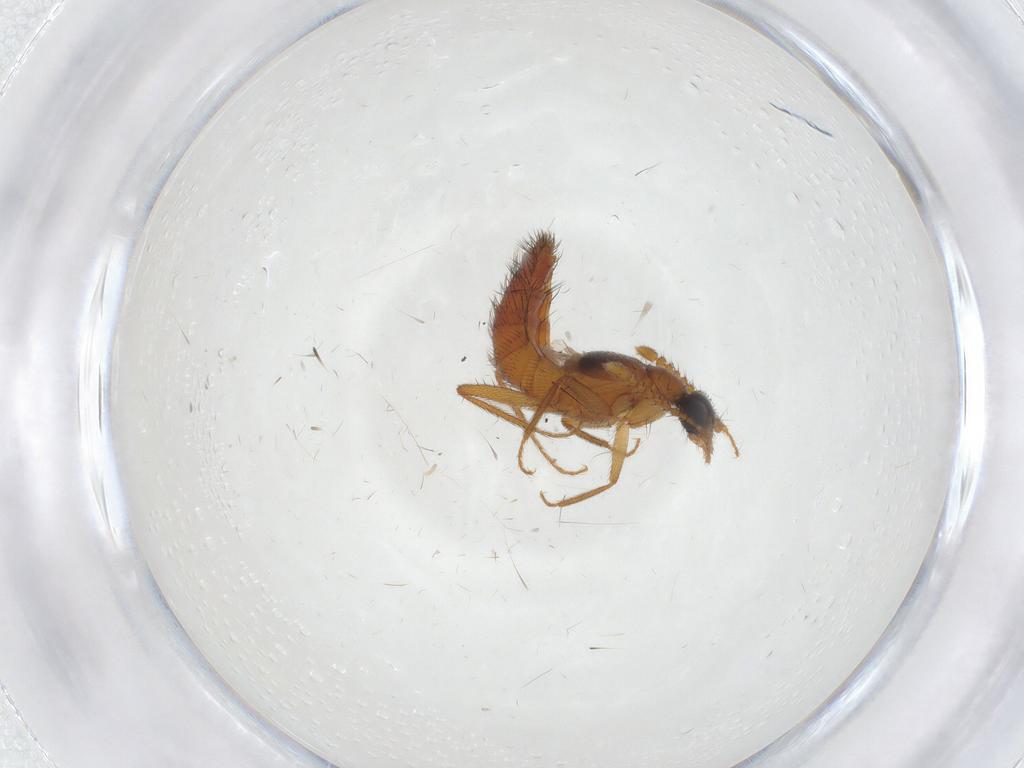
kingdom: Animalia
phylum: Arthropoda
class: Insecta
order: Coleoptera
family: Staphylinidae
